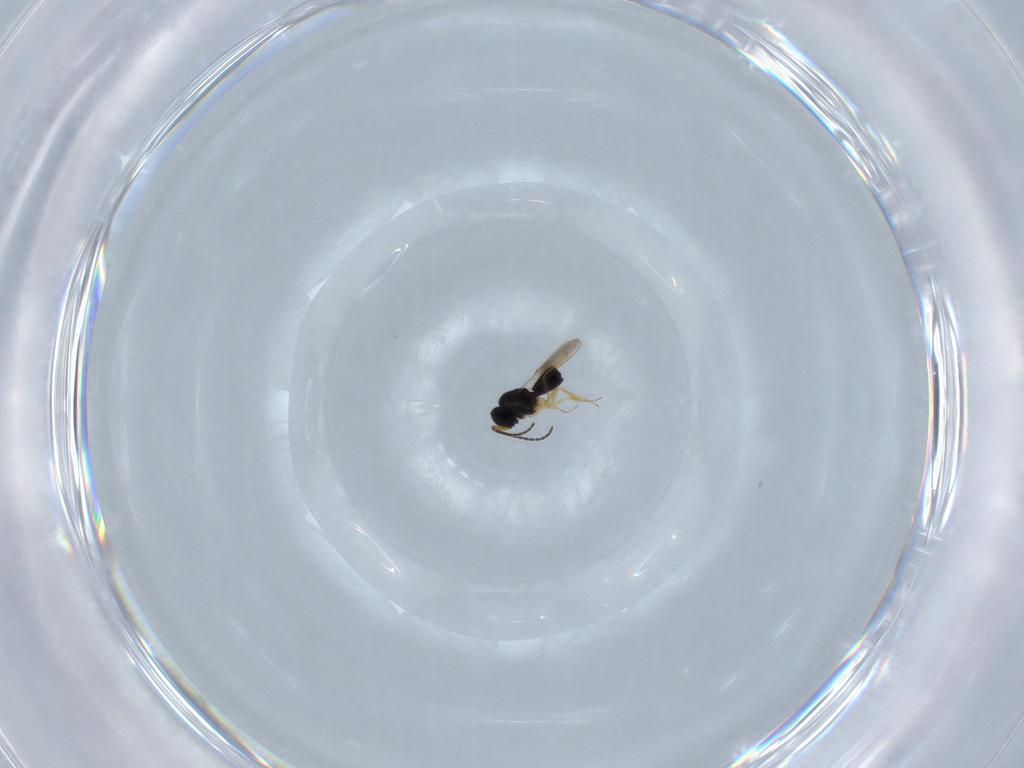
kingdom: Animalia
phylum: Arthropoda
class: Insecta
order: Hymenoptera
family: Scelionidae
